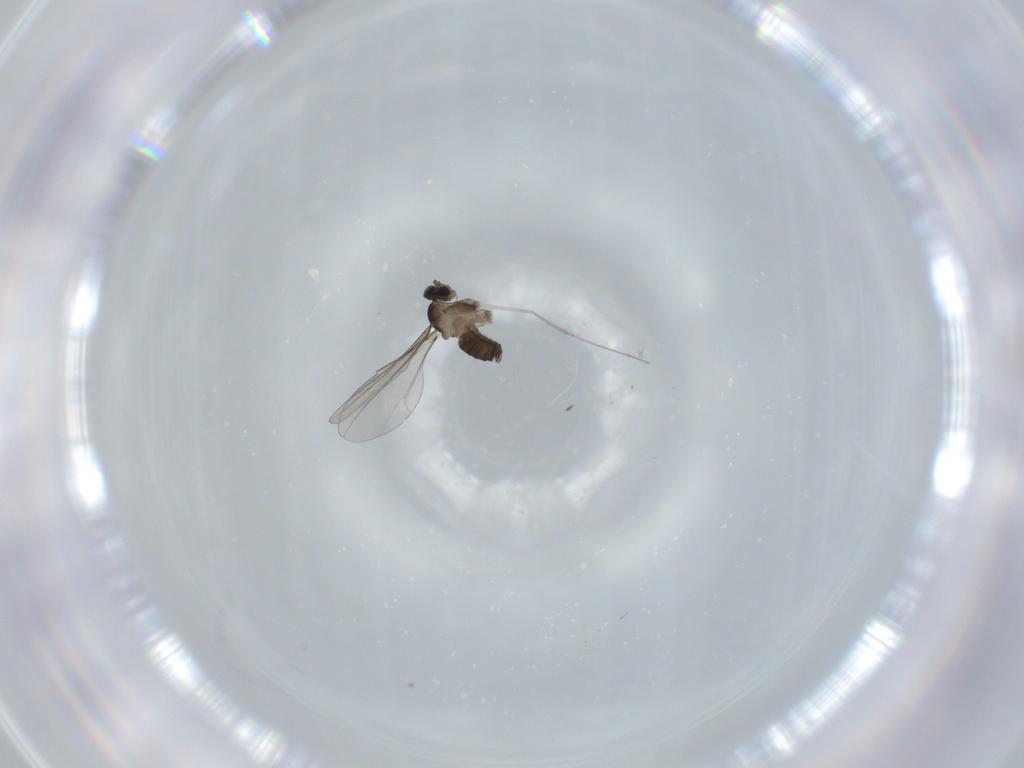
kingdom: Animalia
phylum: Arthropoda
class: Insecta
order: Diptera
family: Cecidomyiidae
